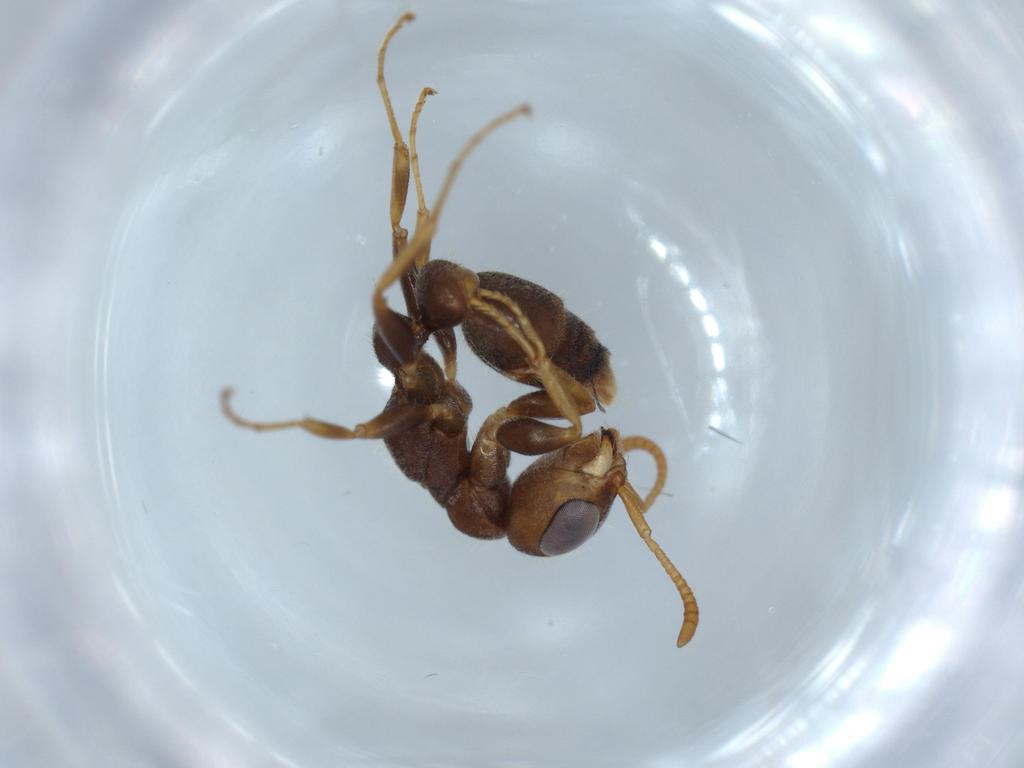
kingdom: Animalia
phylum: Arthropoda
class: Insecta
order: Hymenoptera
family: Formicidae
